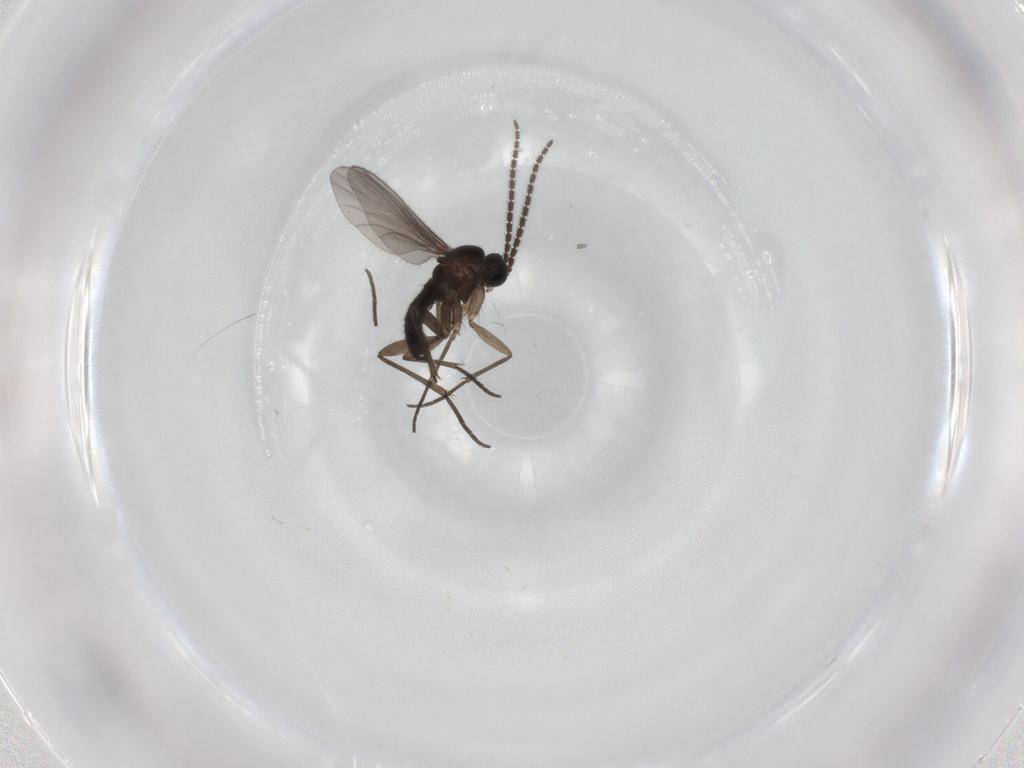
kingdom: Animalia
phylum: Arthropoda
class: Insecta
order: Diptera
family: Sciaridae
